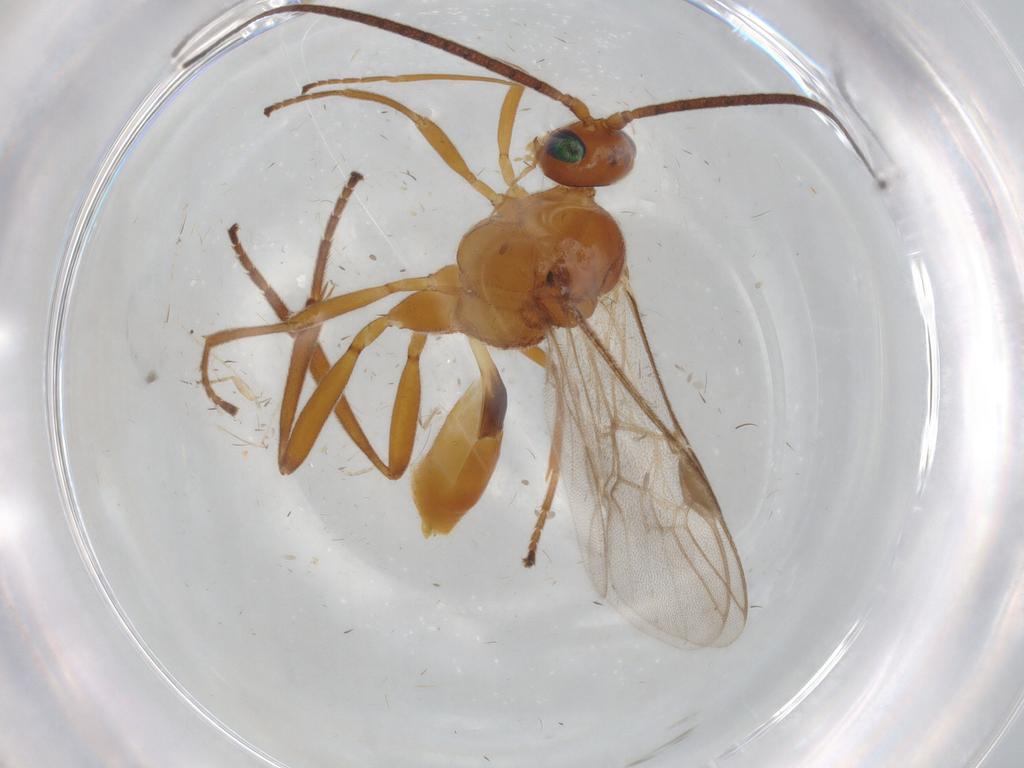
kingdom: Animalia
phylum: Arthropoda
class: Insecta
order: Hymenoptera
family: Braconidae
